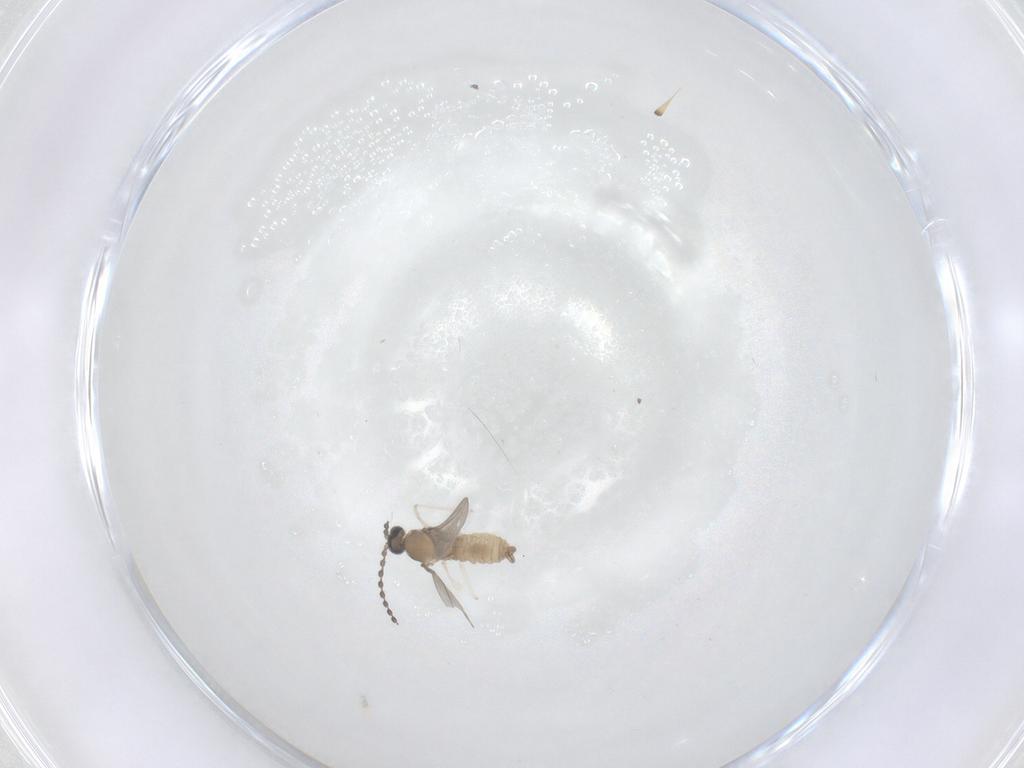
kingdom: Animalia
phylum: Arthropoda
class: Insecta
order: Diptera
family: Cecidomyiidae
